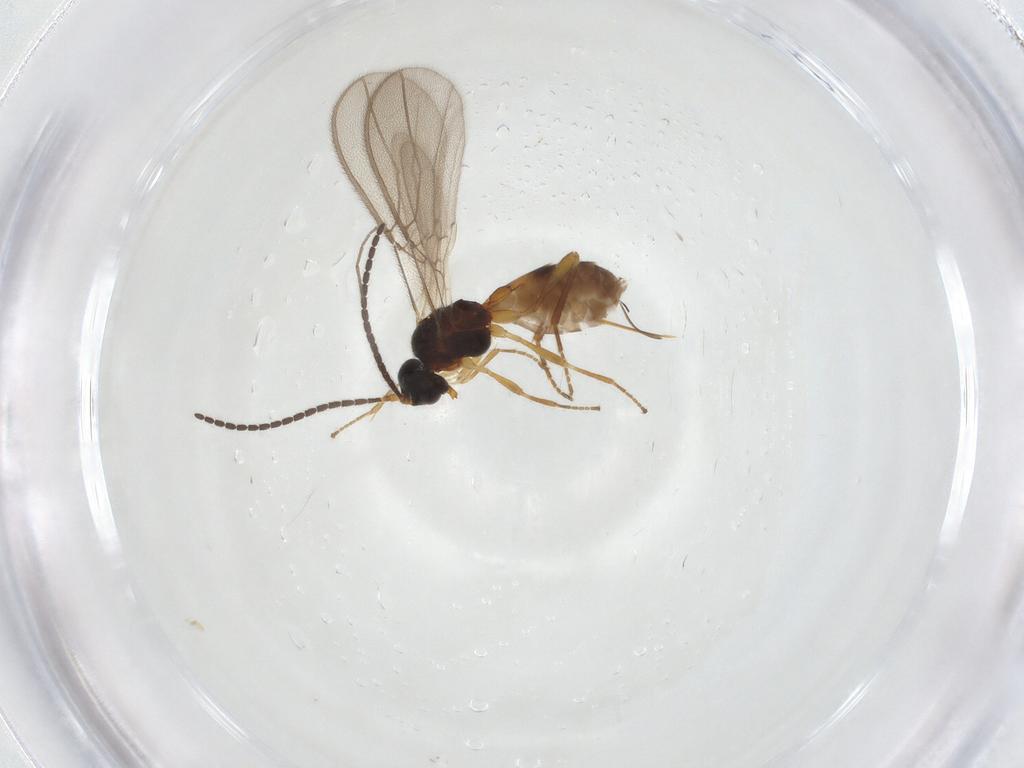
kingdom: Animalia
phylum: Arthropoda
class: Insecta
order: Hymenoptera
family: Braconidae
